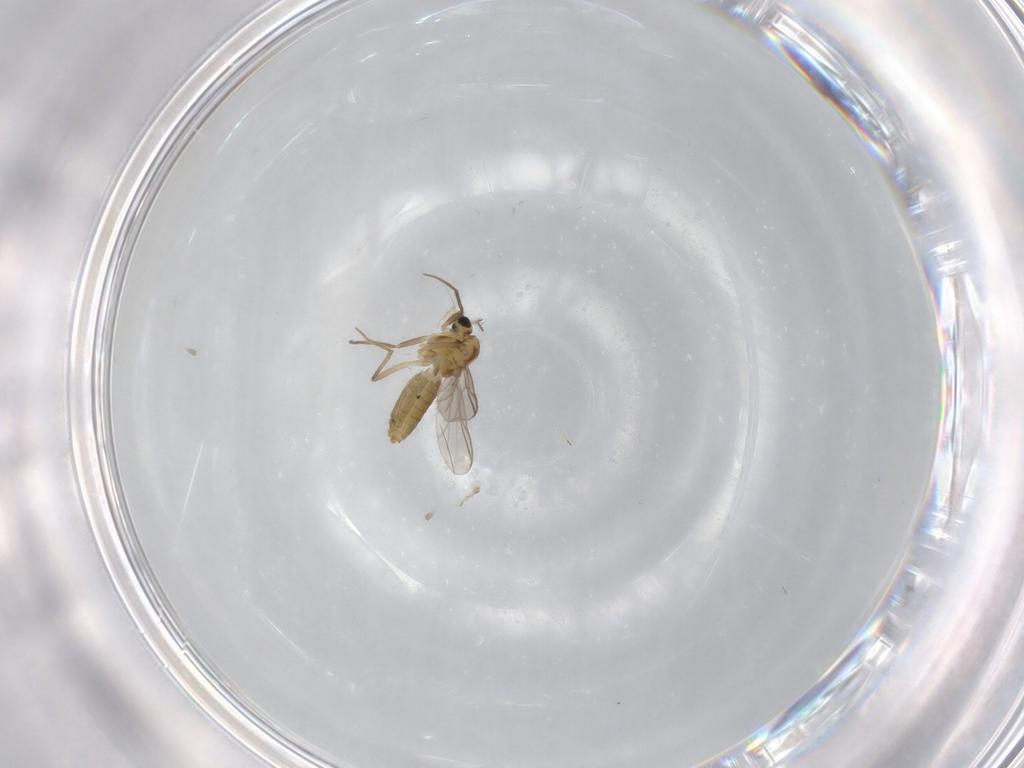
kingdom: Animalia
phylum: Arthropoda
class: Insecta
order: Diptera
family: Chironomidae
